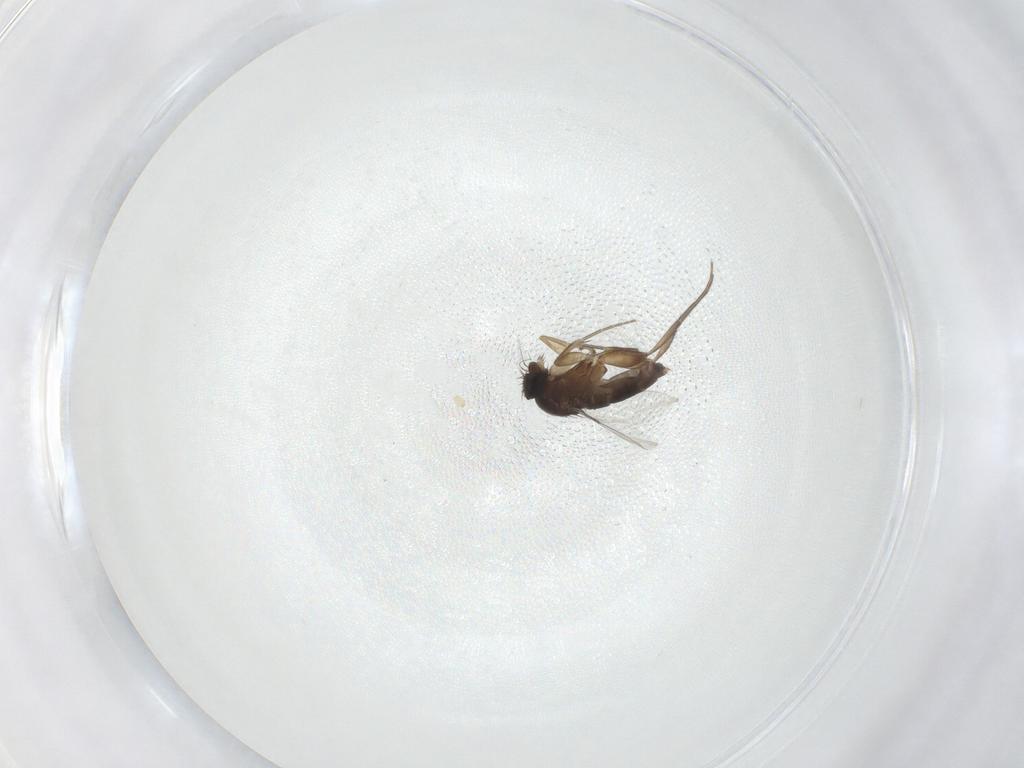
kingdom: Animalia
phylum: Arthropoda
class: Insecta
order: Diptera
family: Phoridae
